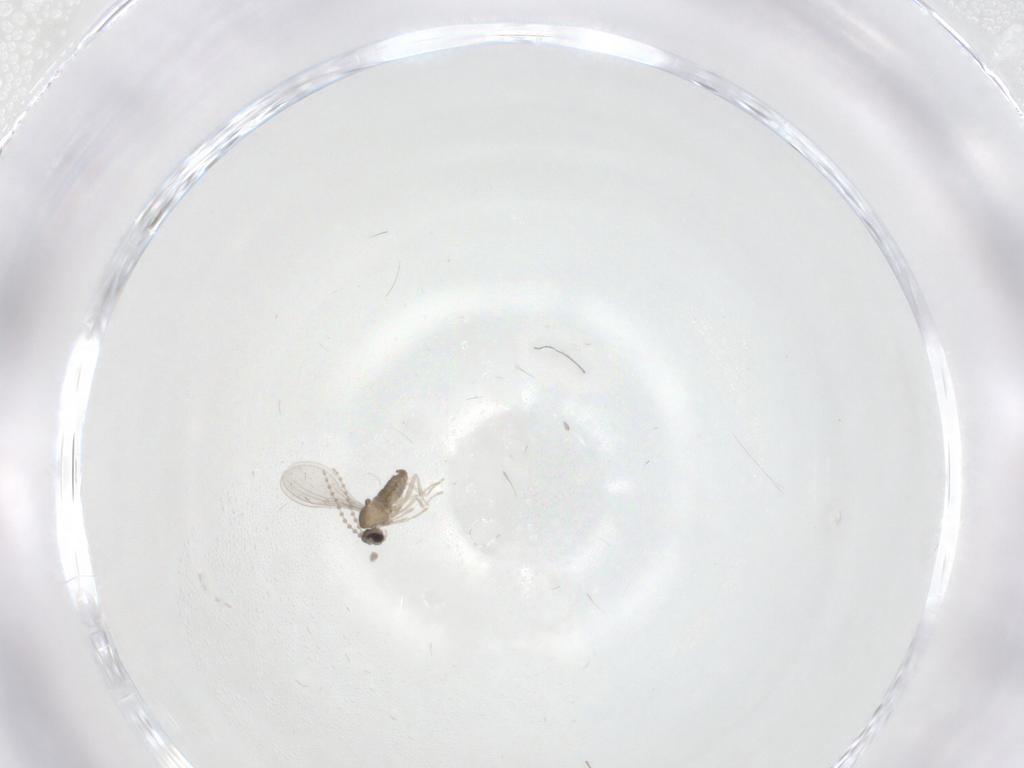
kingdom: Animalia
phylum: Arthropoda
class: Insecta
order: Diptera
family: Chironomidae
